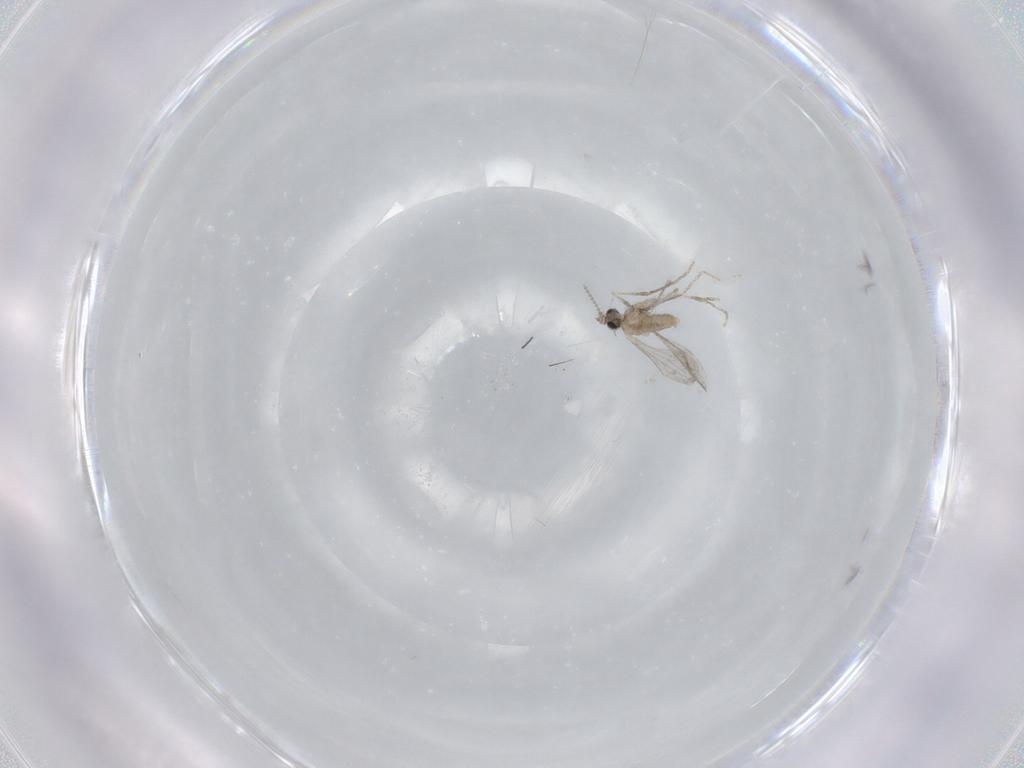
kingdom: Animalia
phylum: Arthropoda
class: Insecta
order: Diptera
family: Cecidomyiidae
